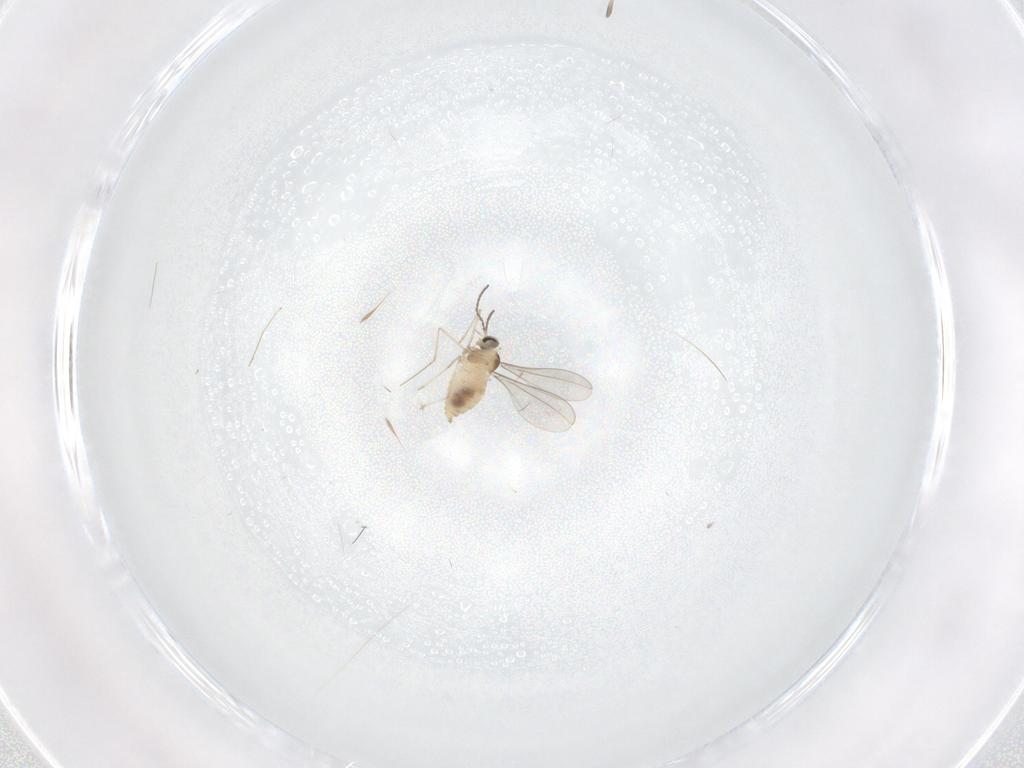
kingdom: Animalia
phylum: Arthropoda
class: Insecta
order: Diptera
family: Cecidomyiidae
